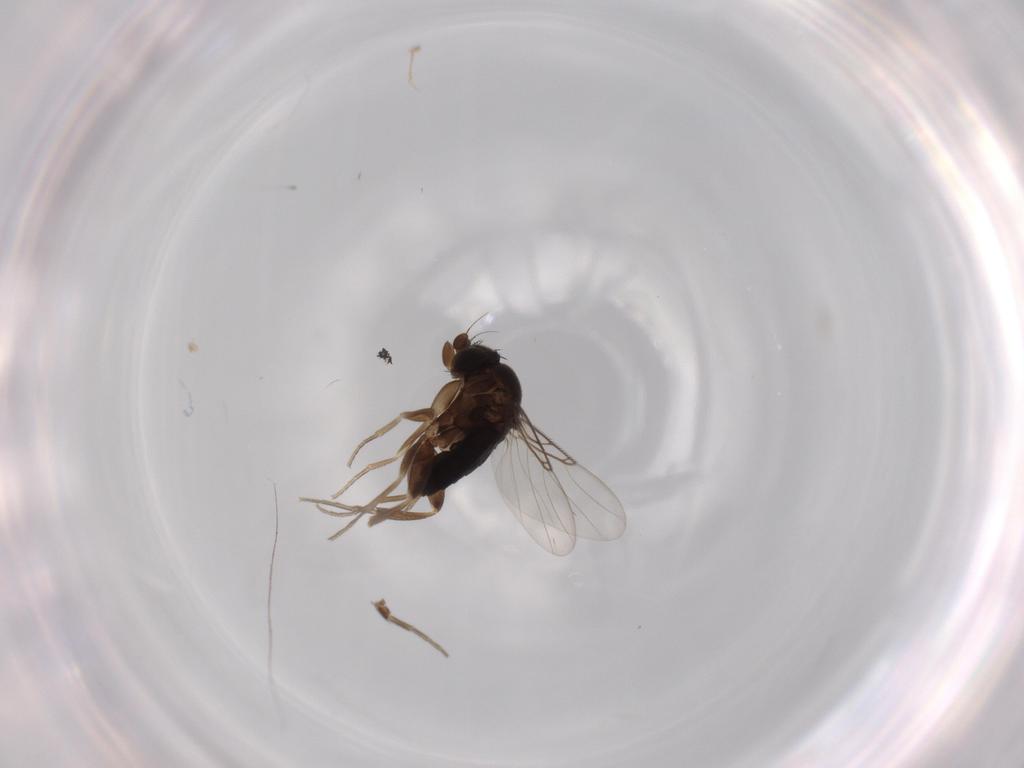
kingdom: Animalia
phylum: Arthropoda
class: Insecta
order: Diptera
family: Phoridae
